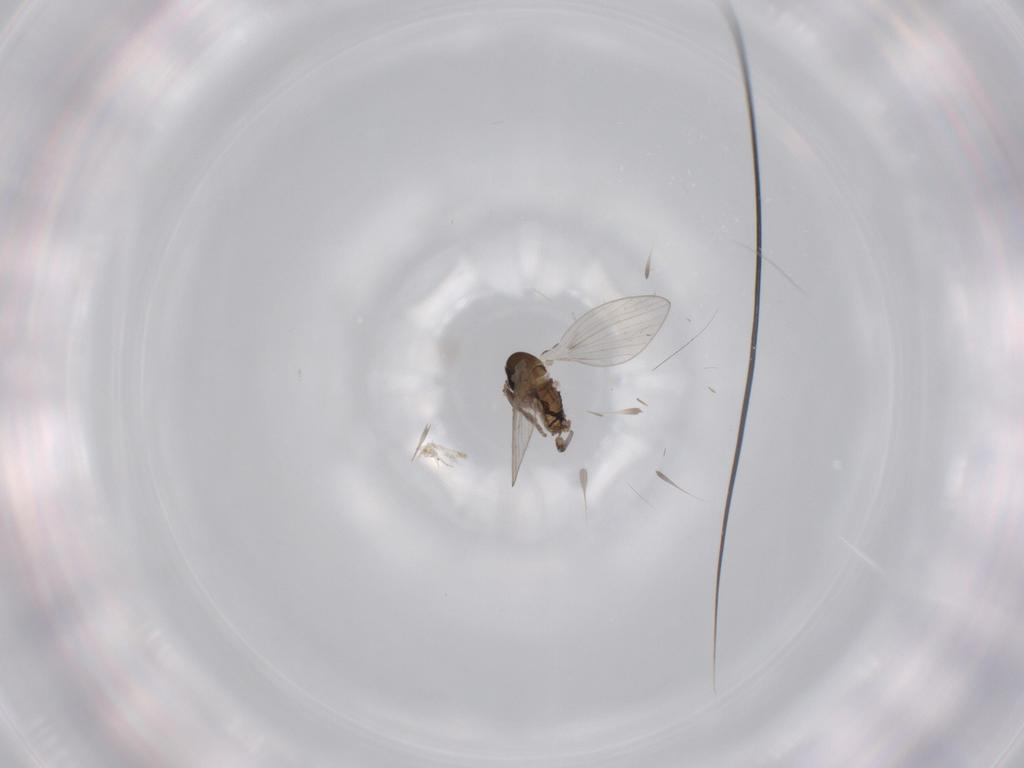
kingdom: Animalia
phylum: Arthropoda
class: Insecta
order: Diptera
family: Psychodidae
